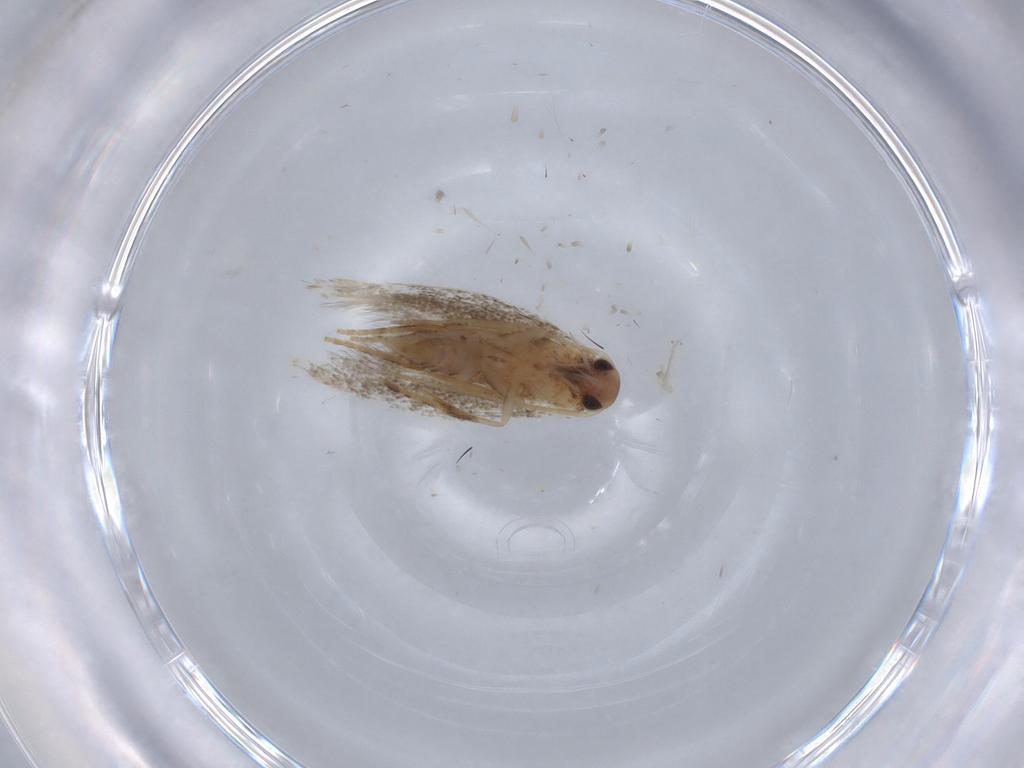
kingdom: Animalia
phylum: Arthropoda
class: Insecta
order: Lepidoptera
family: Elachistidae
